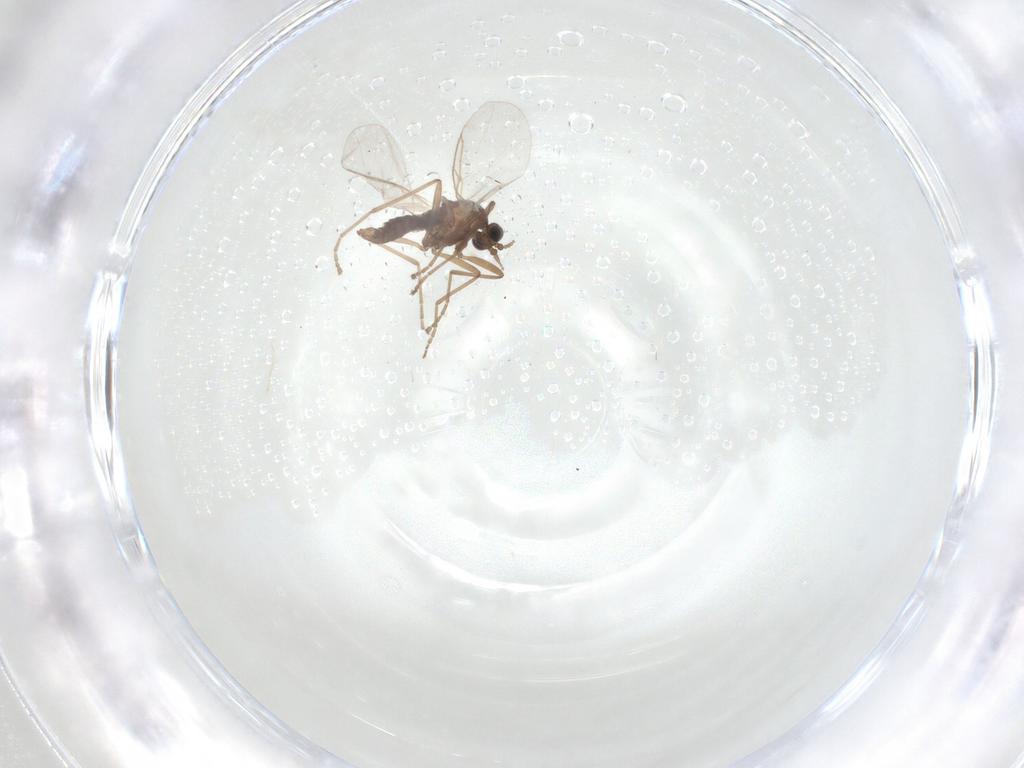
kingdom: Animalia
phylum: Arthropoda
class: Insecta
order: Diptera
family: Cecidomyiidae
